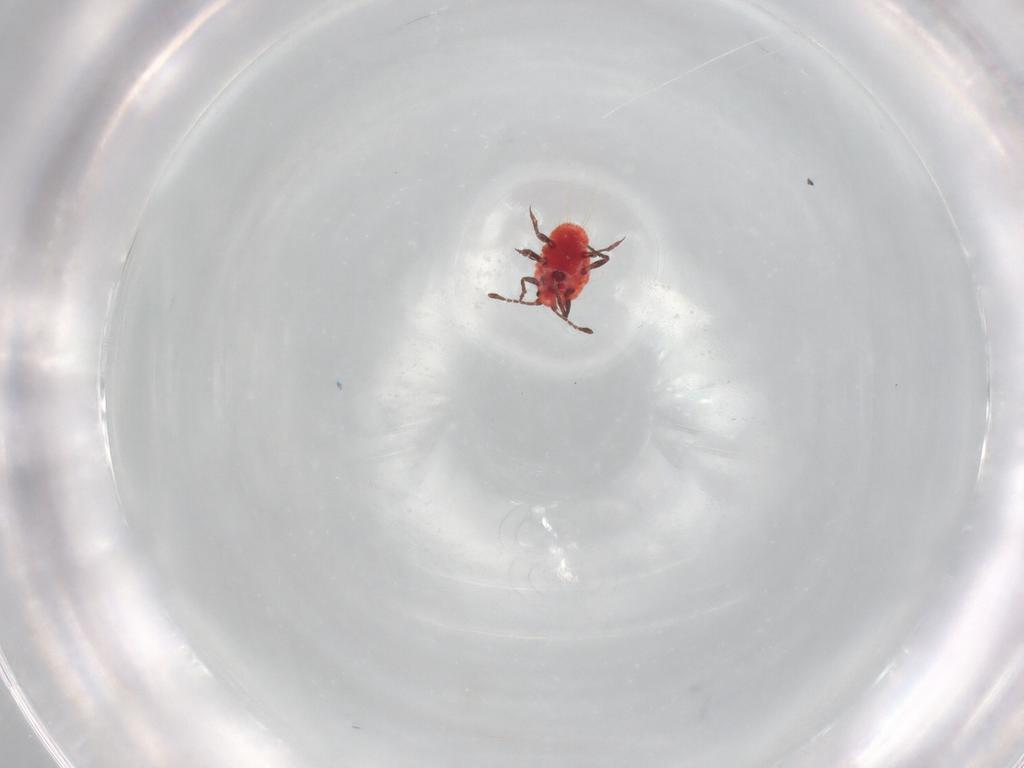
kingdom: Animalia
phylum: Arthropoda
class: Insecta
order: Hemiptera
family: Coccoidea_incertae_sedis
